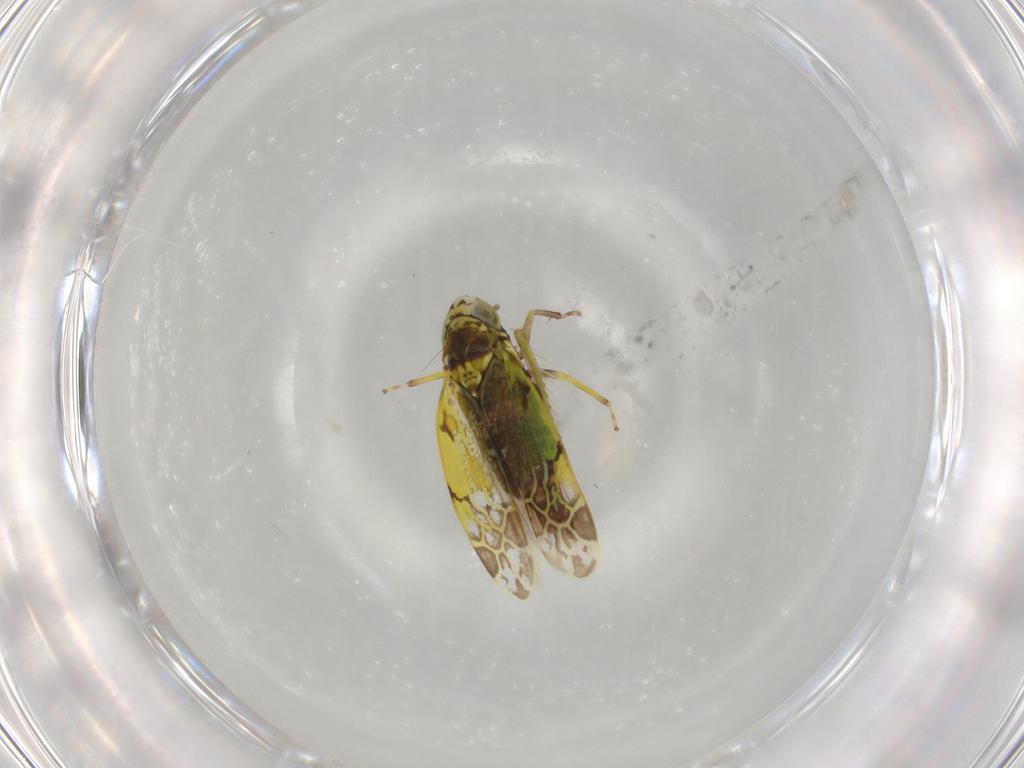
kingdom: Animalia
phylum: Arthropoda
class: Insecta
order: Hemiptera
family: Cicadellidae
